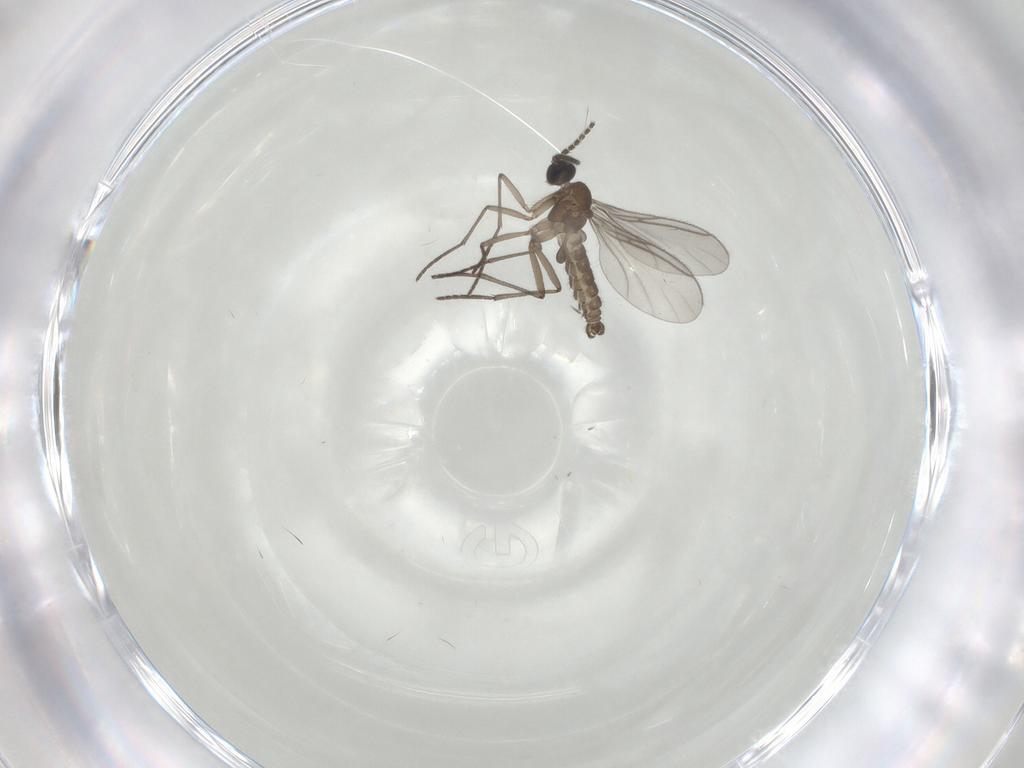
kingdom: Animalia
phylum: Arthropoda
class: Insecta
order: Diptera
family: Sciaridae
